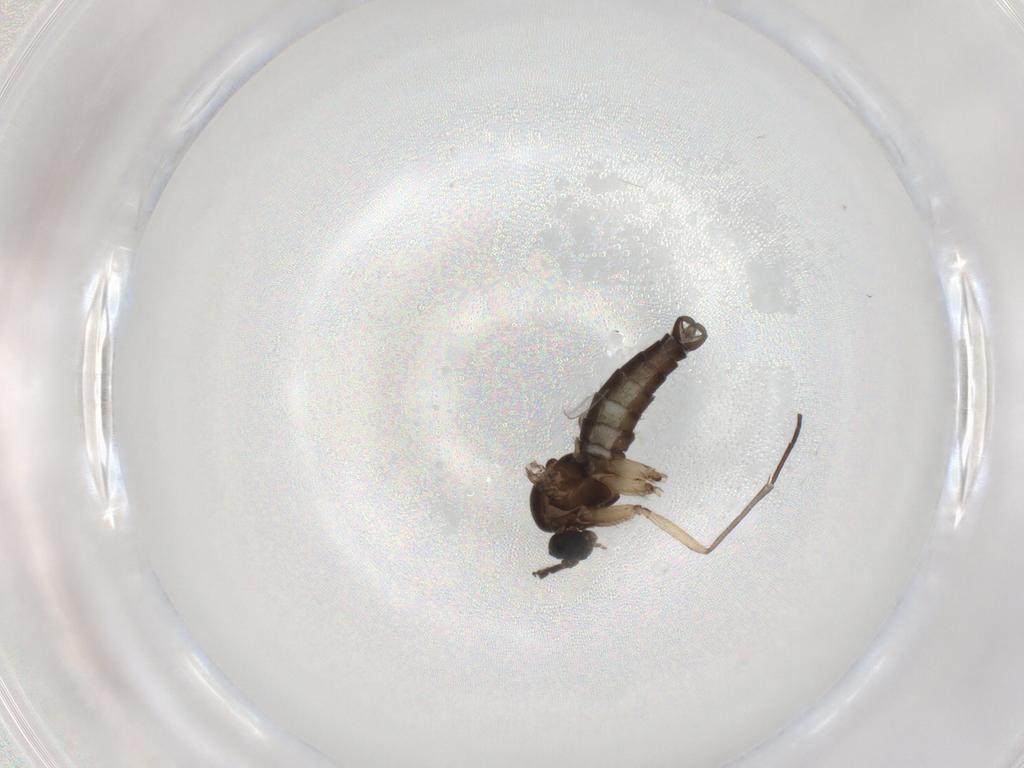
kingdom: Animalia
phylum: Arthropoda
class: Insecta
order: Diptera
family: Sciaridae
